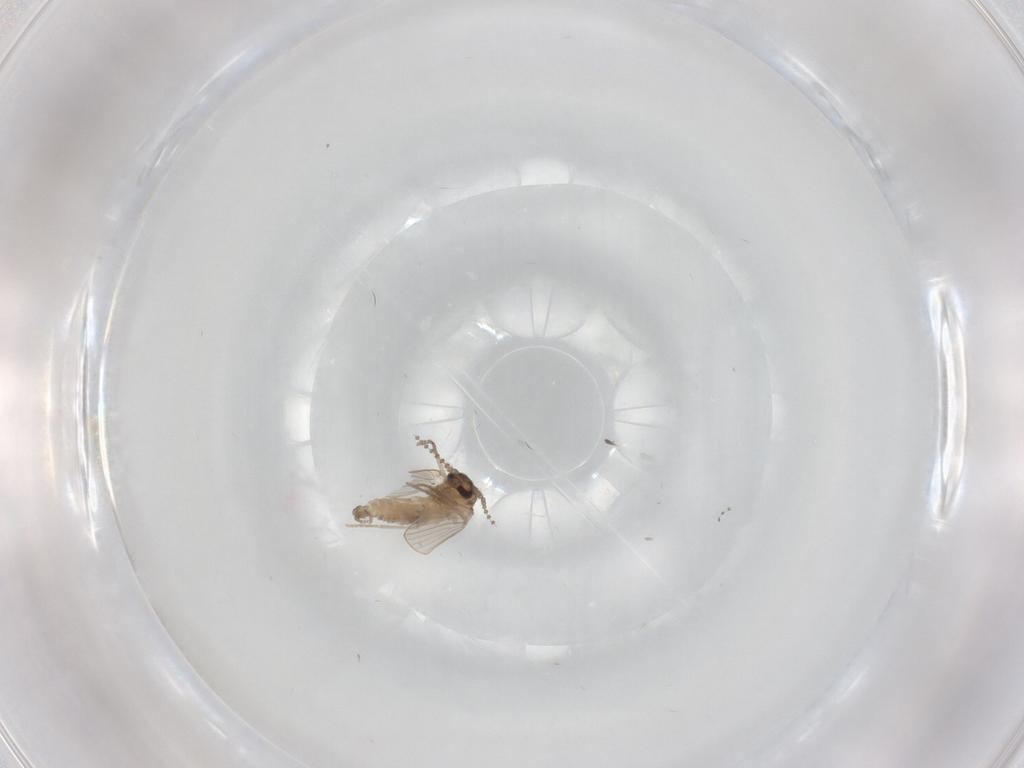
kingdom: Animalia
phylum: Arthropoda
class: Insecta
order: Diptera
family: Psychodidae
